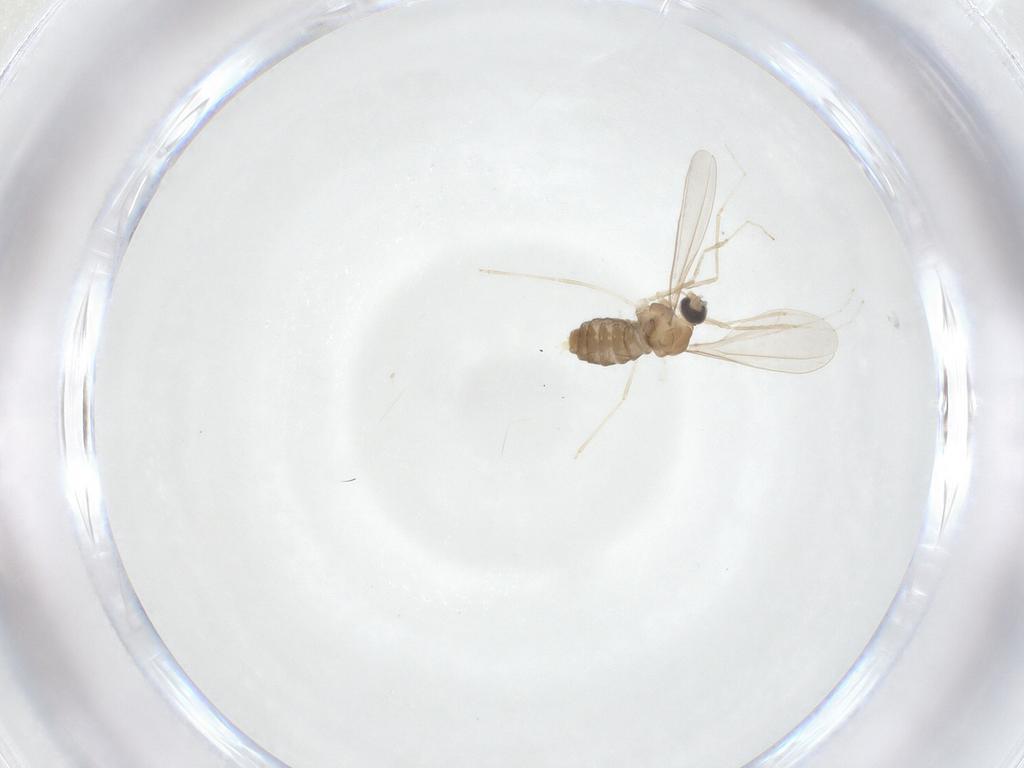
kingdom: Animalia
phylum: Arthropoda
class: Insecta
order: Diptera
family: Cecidomyiidae
